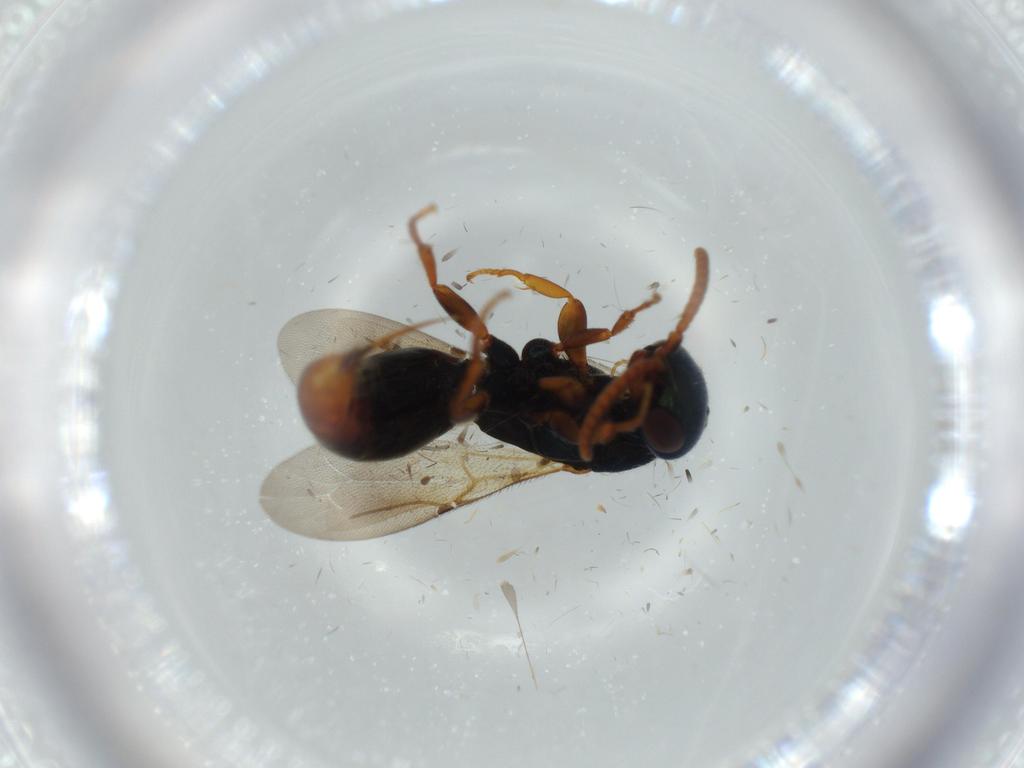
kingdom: Animalia
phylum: Arthropoda
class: Insecta
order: Hymenoptera
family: Bethylidae
